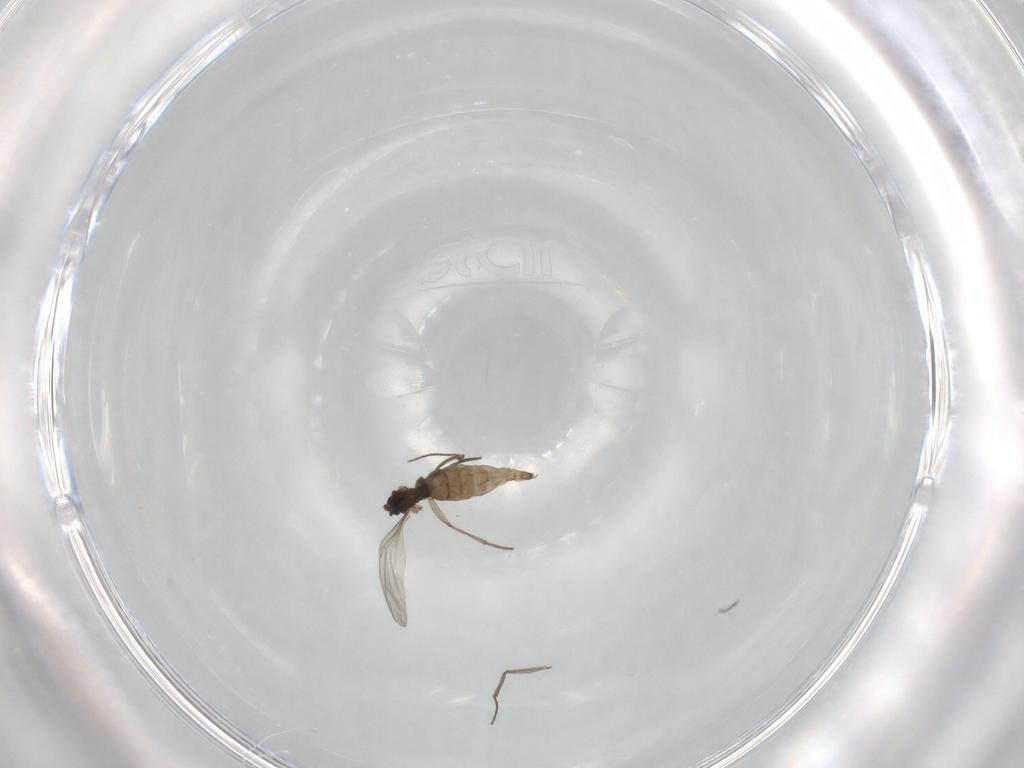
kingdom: Animalia
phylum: Arthropoda
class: Insecta
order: Diptera
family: Sciaridae
